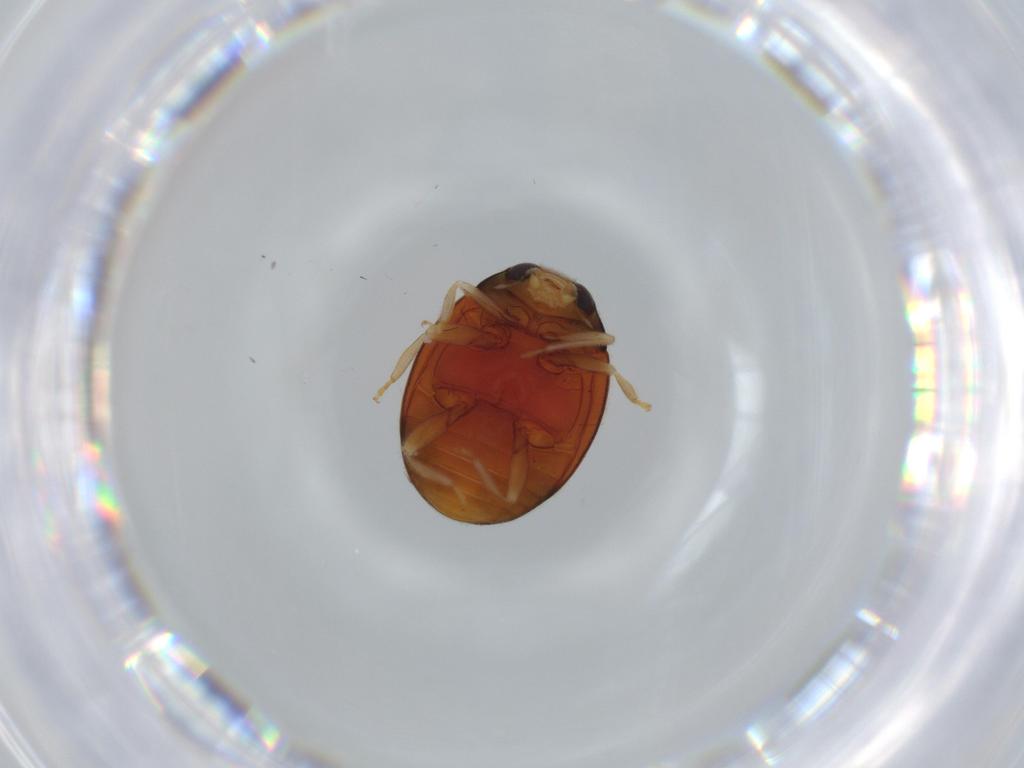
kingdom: Animalia
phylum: Arthropoda
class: Insecta
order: Coleoptera
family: Coccinellidae
